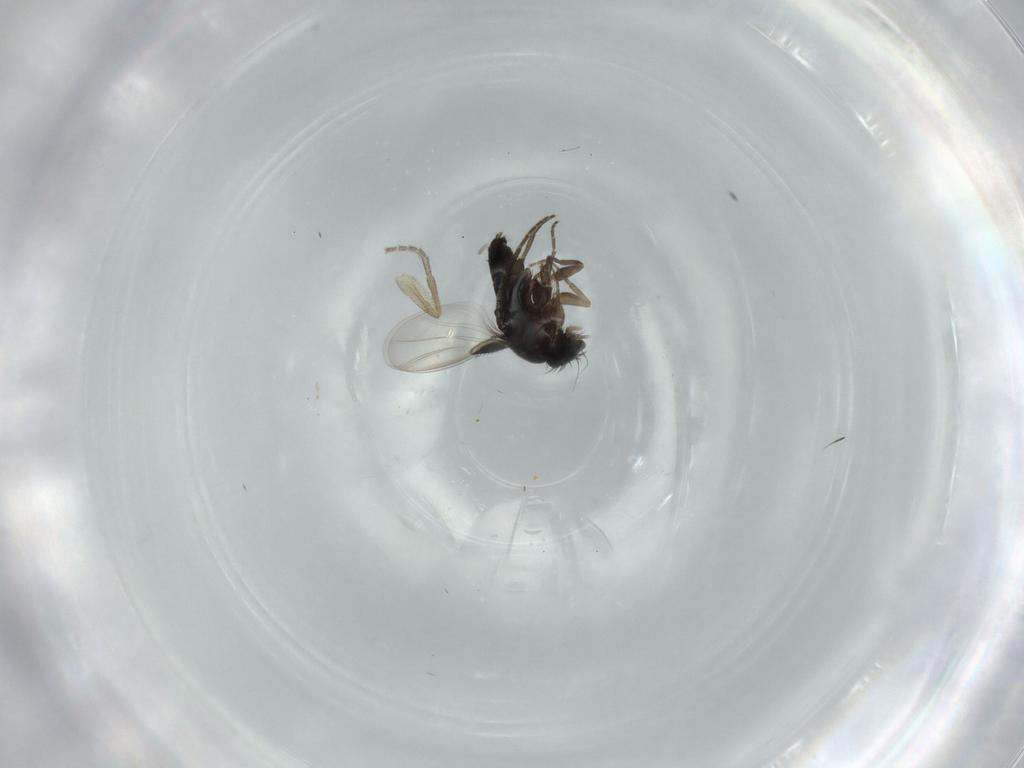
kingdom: Animalia
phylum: Arthropoda
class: Insecta
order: Diptera
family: Phoridae
